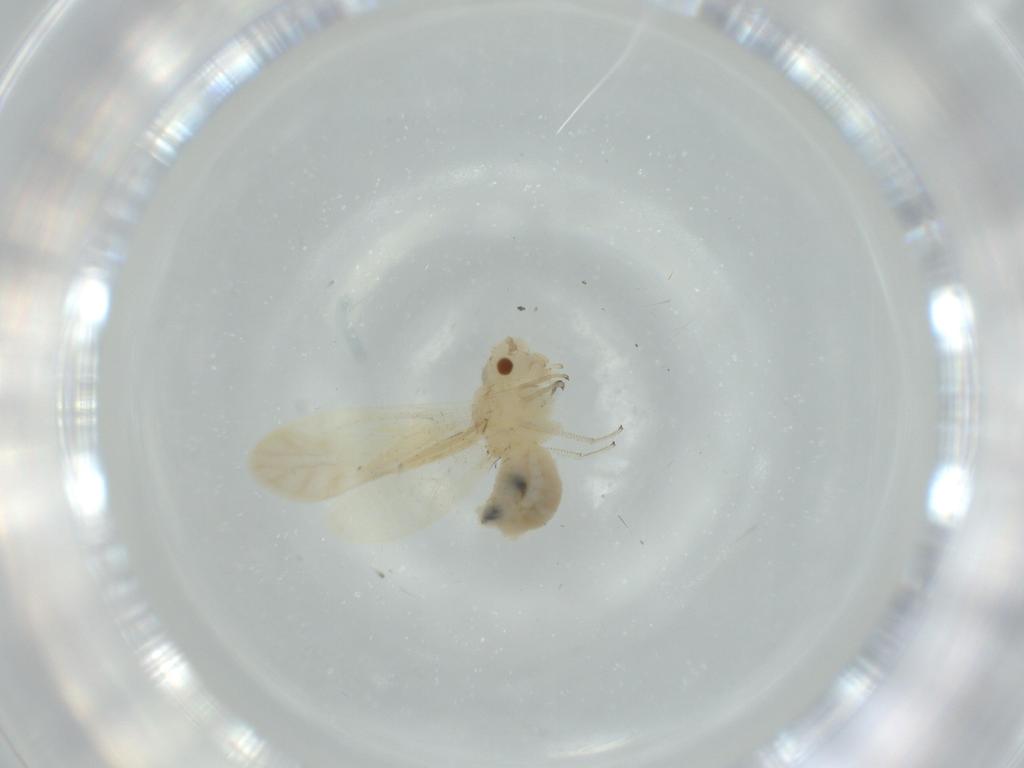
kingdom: Animalia
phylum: Arthropoda
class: Insecta
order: Psocodea
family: Caeciliusidae
